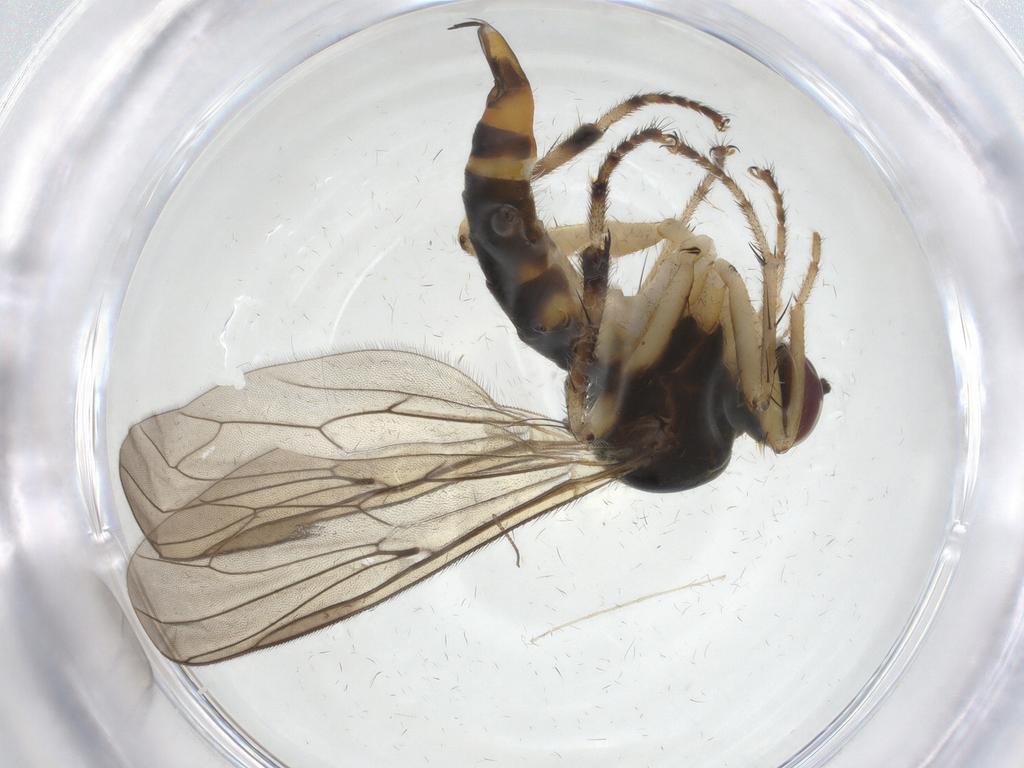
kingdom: Animalia
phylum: Arthropoda
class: Insecta
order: Diptera
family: Hybotidae
